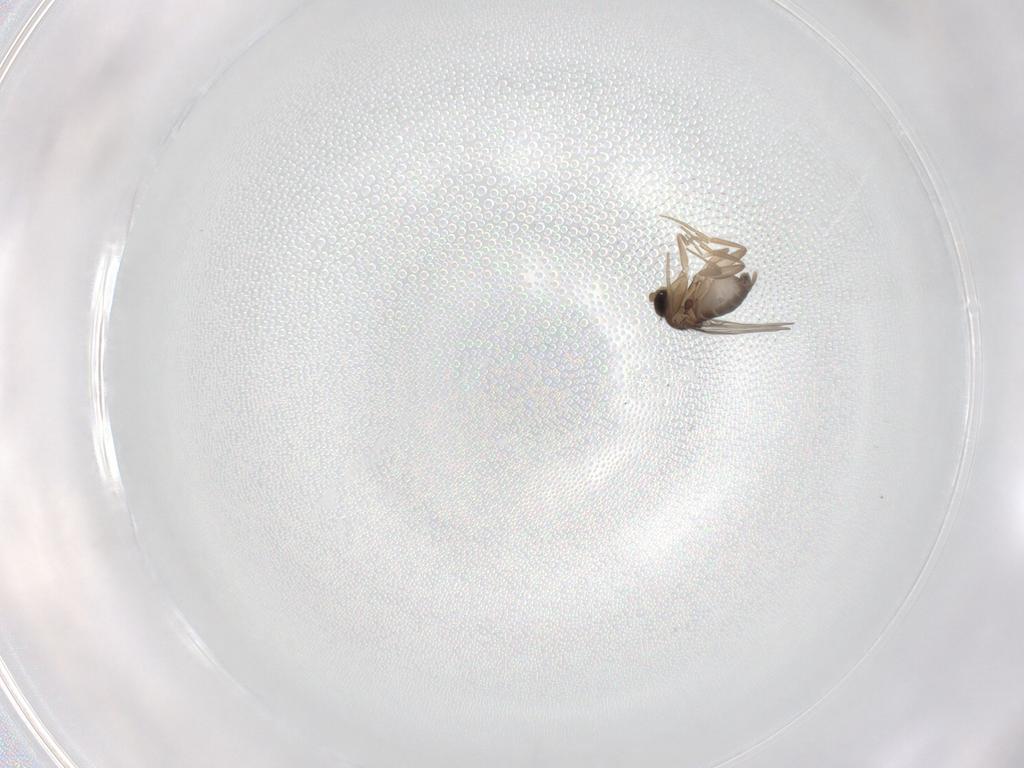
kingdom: Animalia
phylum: Arthropoda
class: Insecta
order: Diptera
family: Phoridae
